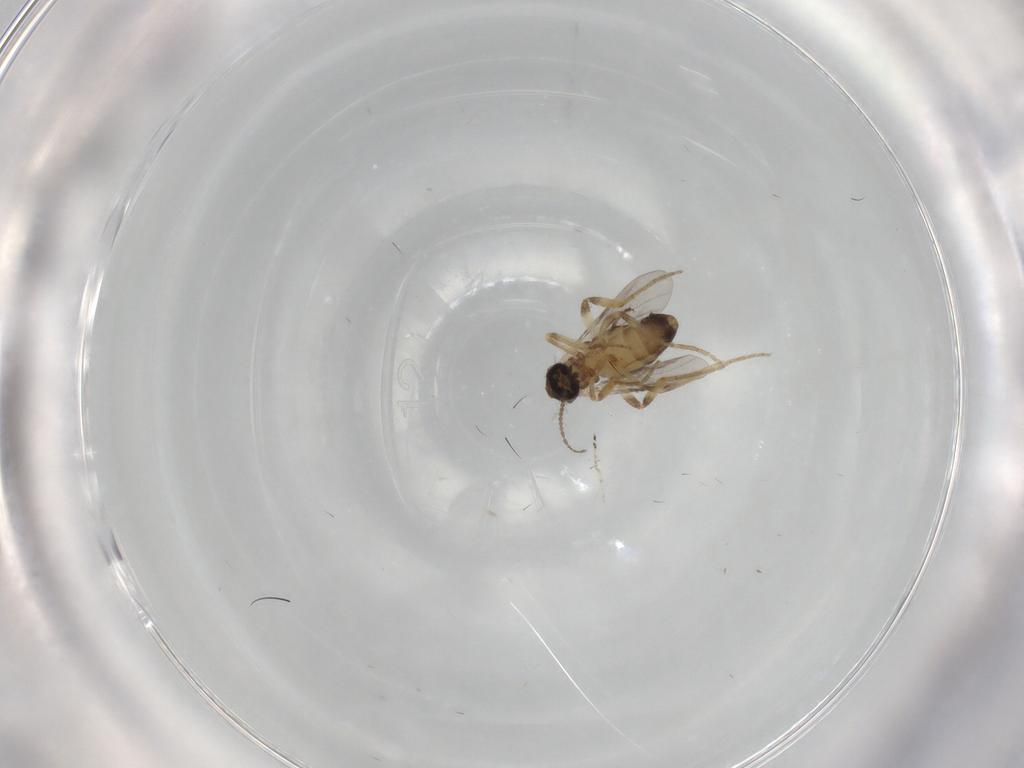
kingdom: Animalia
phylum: Arthropoda
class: Insecta
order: Diptera
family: Ceratopogonidae
